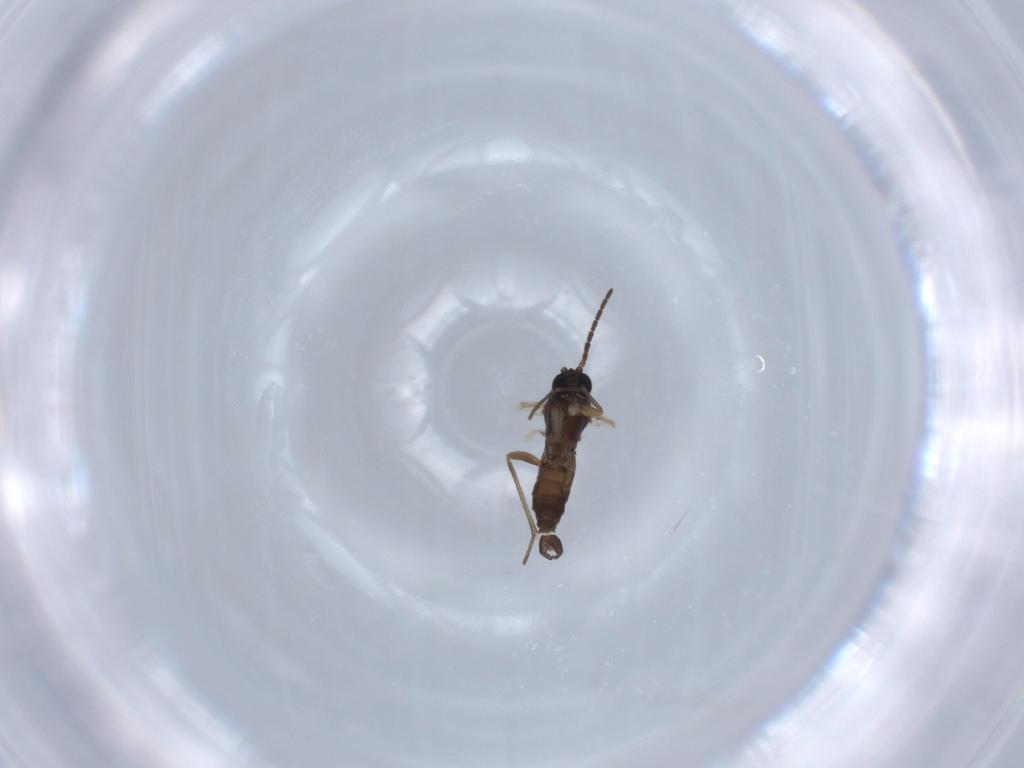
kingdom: Animalia
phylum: Arthropoda
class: Insecta
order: Diptera
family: Sciaridae
